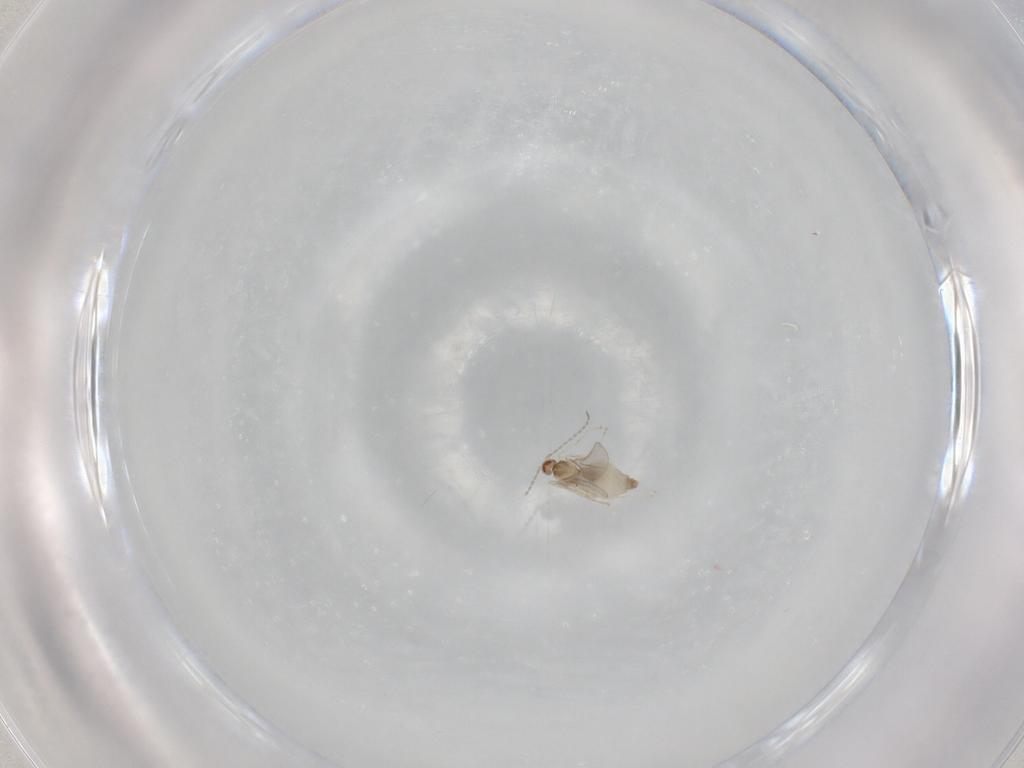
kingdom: Animalia
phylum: Arthropoda
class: Insecta
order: Diptera
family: Cecidomyiidae
